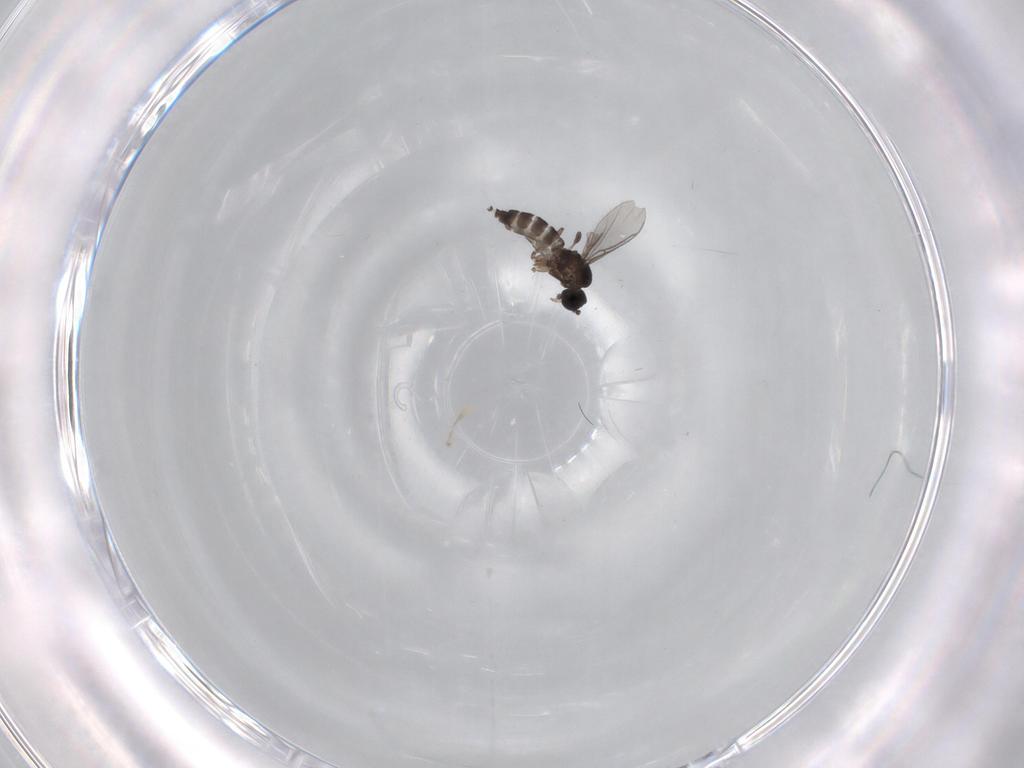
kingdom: Animalia
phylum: Arthropoda
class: Insecta
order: Diptera
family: Sciaridae
